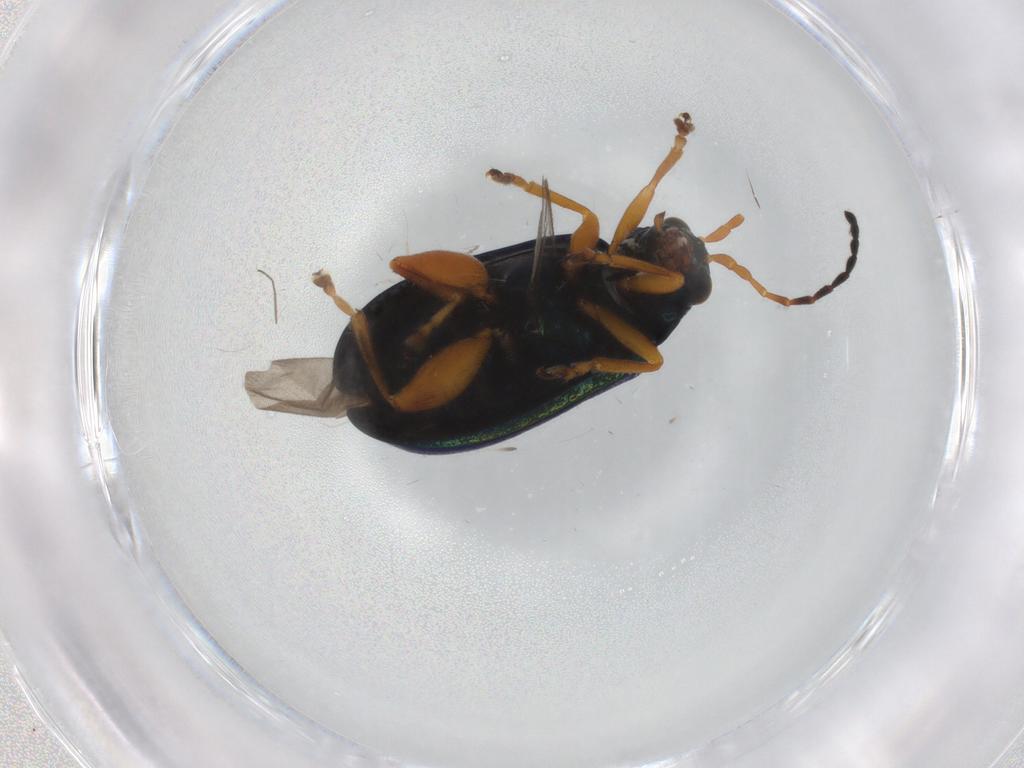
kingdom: Animalia
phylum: Arthropoda
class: Insecta
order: Coleoptera
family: Chrysomelidae
